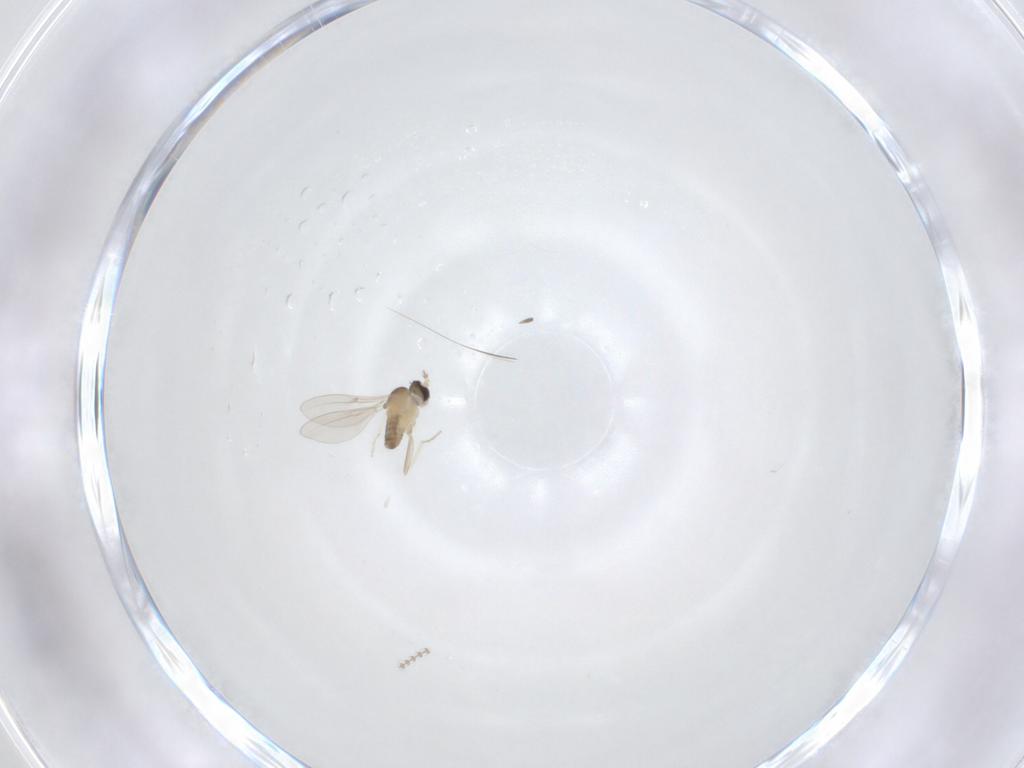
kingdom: Animalia
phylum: Arthropoda
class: Insecta
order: Diptera
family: Cecidomyiidae
